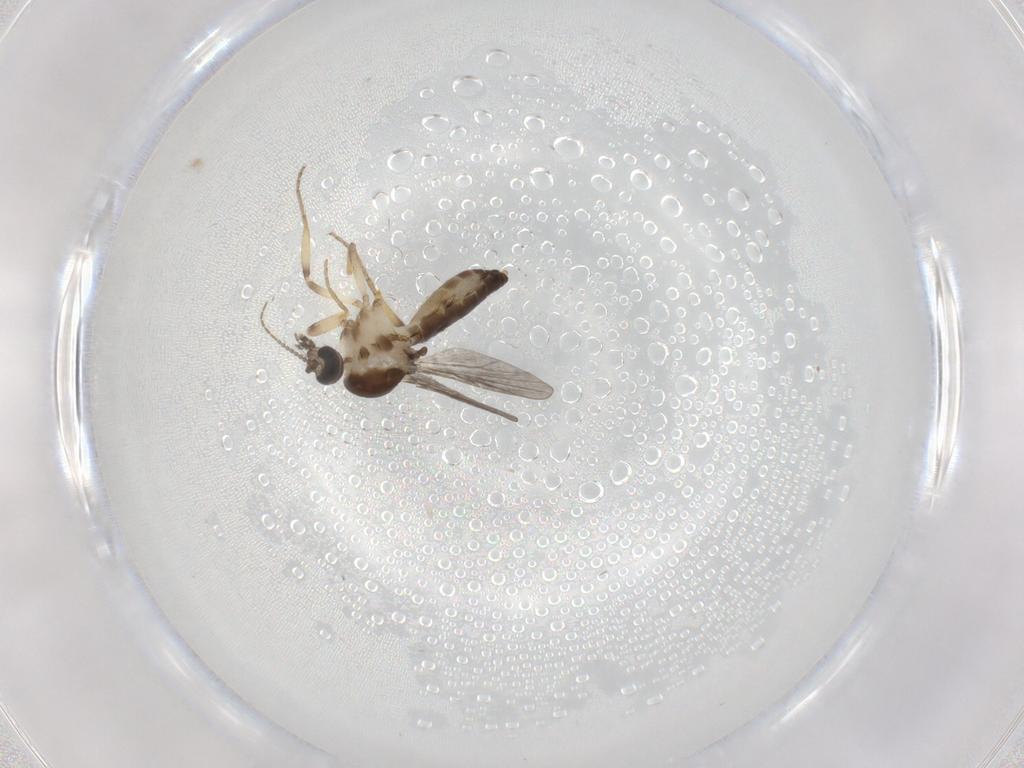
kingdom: Animalia
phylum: Arthropoda
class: Insecta
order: Diptera
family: Ceratopogonidae
